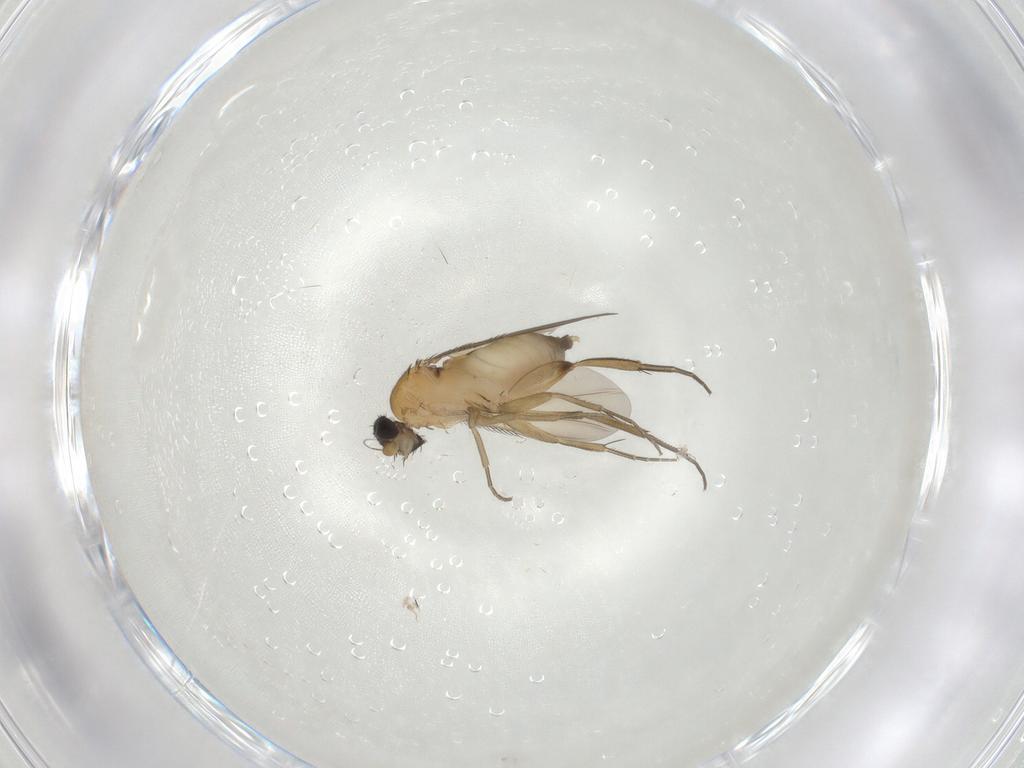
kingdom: Animalia
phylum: Arthropoda
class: Insecta
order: Diptera
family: Phoridae
